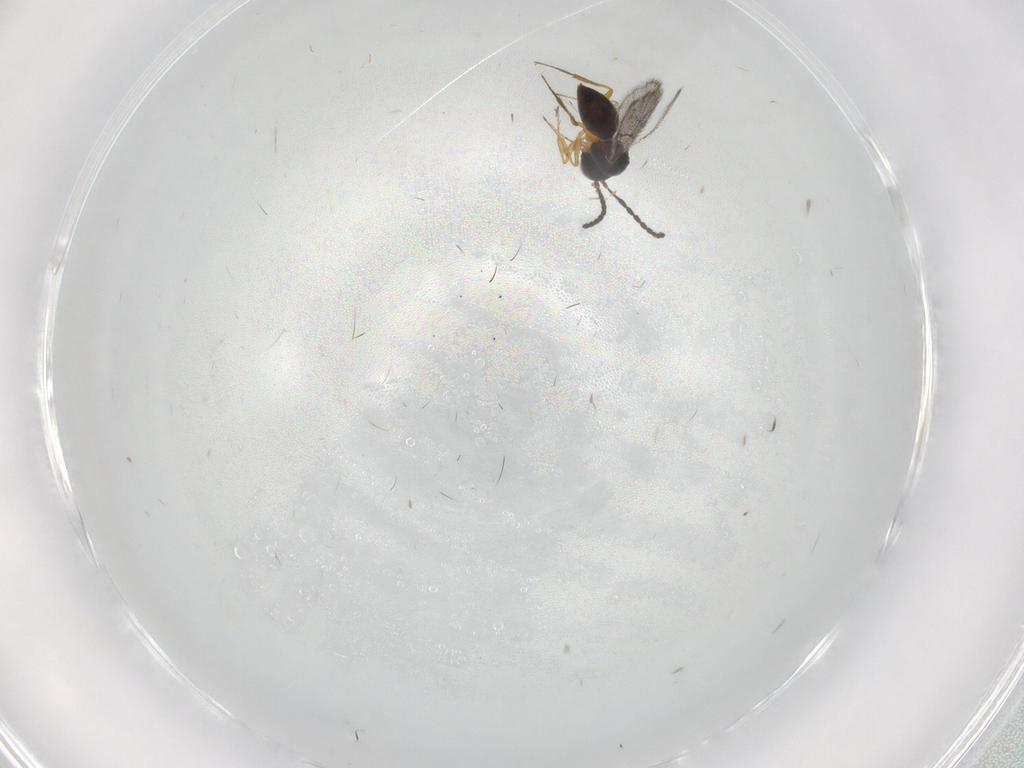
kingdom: Animalia
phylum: Arthropoda
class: Insecta
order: Hymenoptera
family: Figitidae
